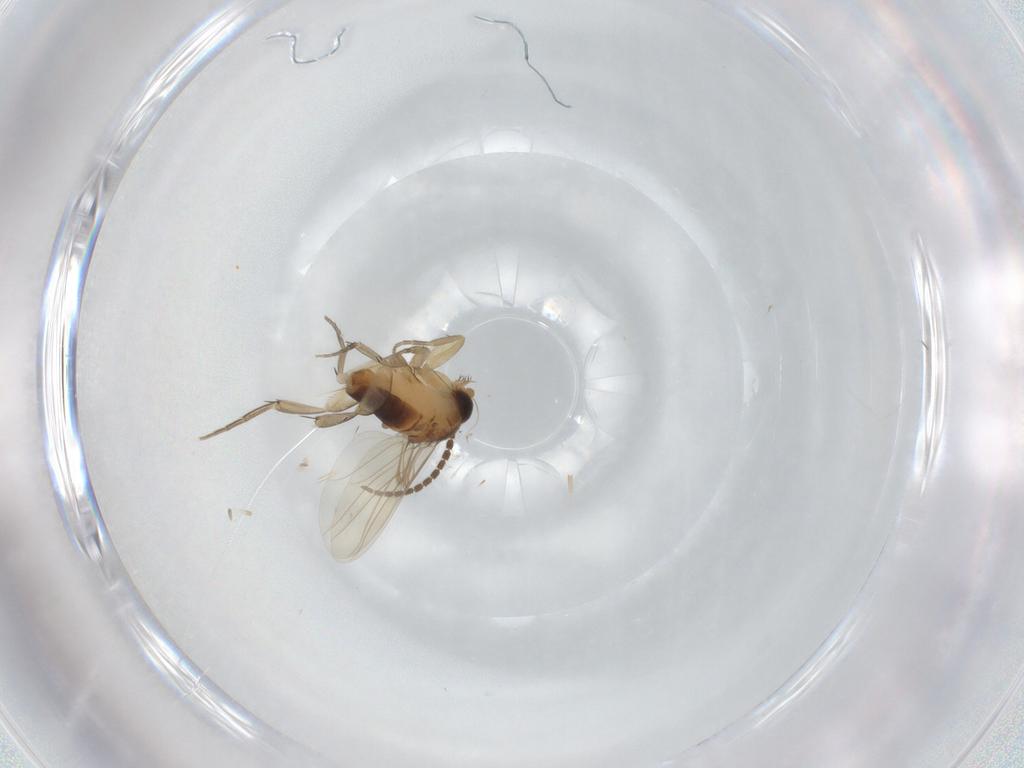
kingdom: Animalia
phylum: Arthropoda
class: Insecta
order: Diptera
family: Phoridae
